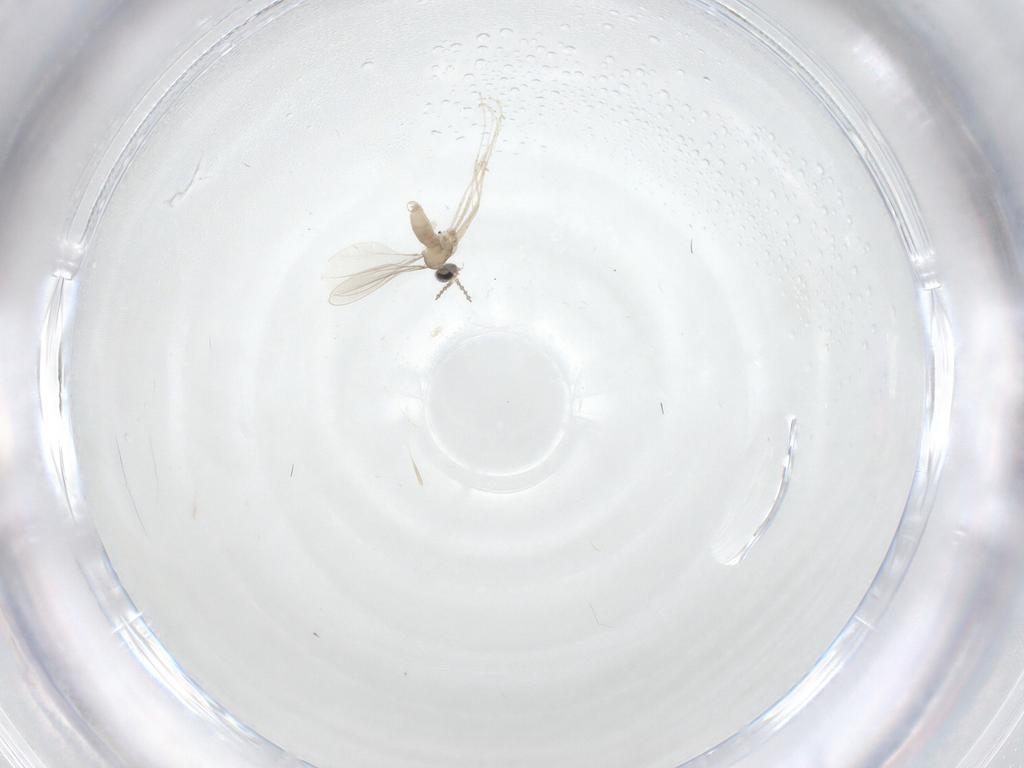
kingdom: Animalia
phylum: Arthropoda
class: Insecta
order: Diptera
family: Cecidomyiidae
